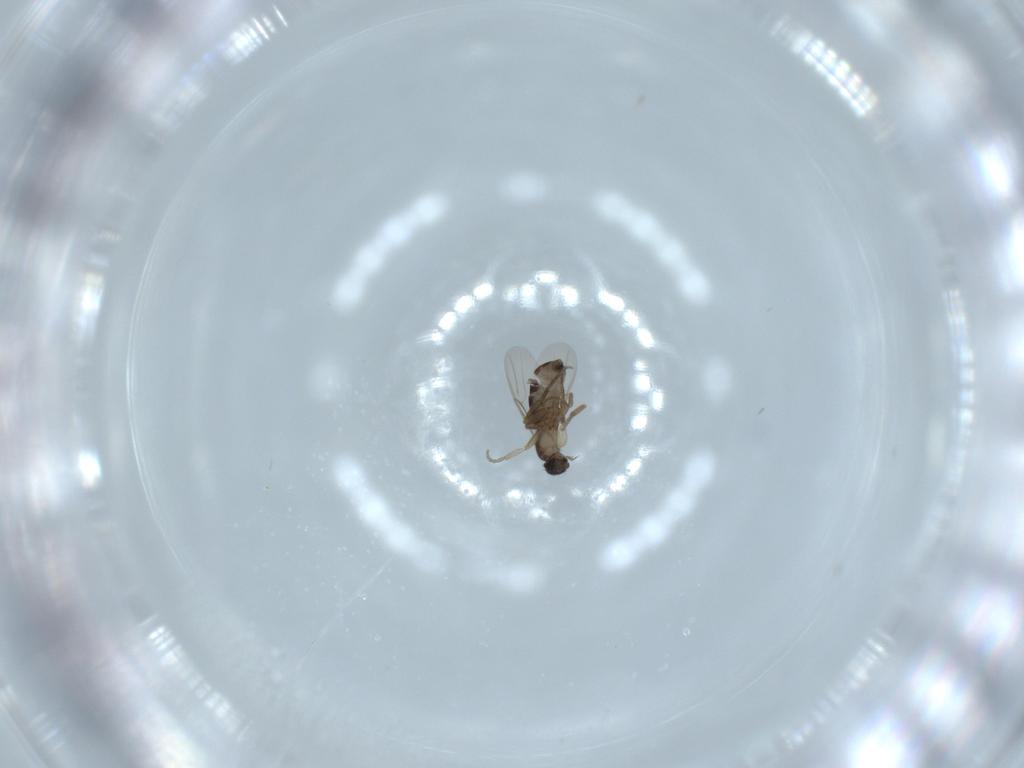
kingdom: Animalia
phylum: Arthropoda
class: Insecta
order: Diptera
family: Phoridae
